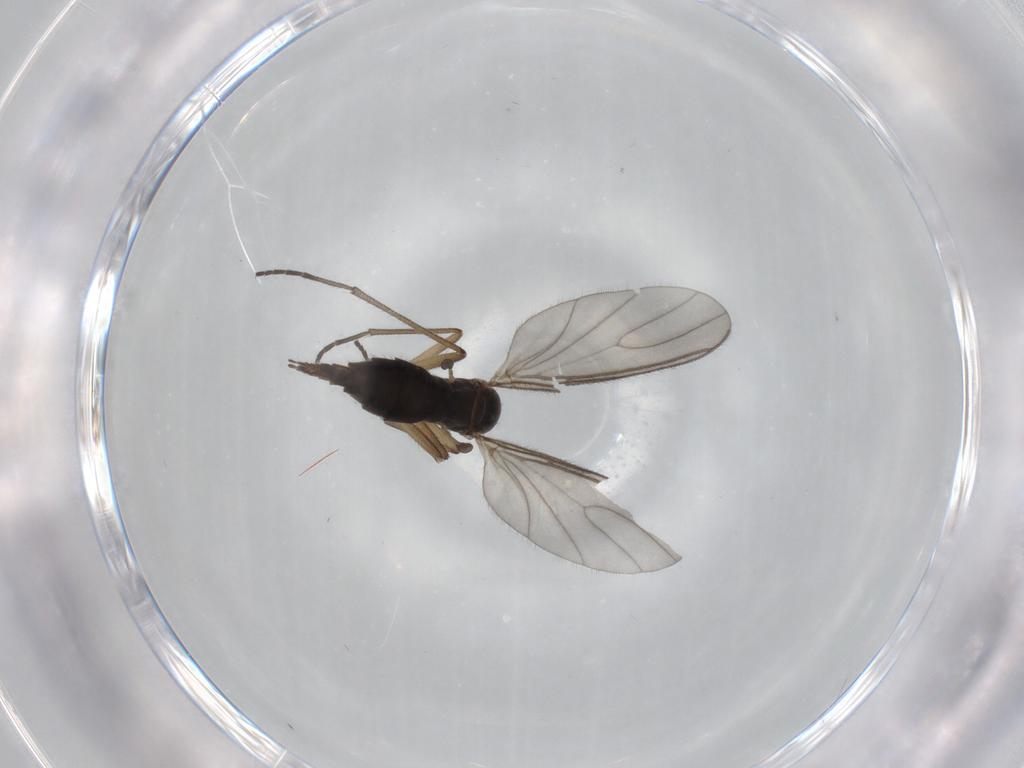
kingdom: Animalia
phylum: Arthropoda
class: Insecta
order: Diptera
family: Sciaridae
